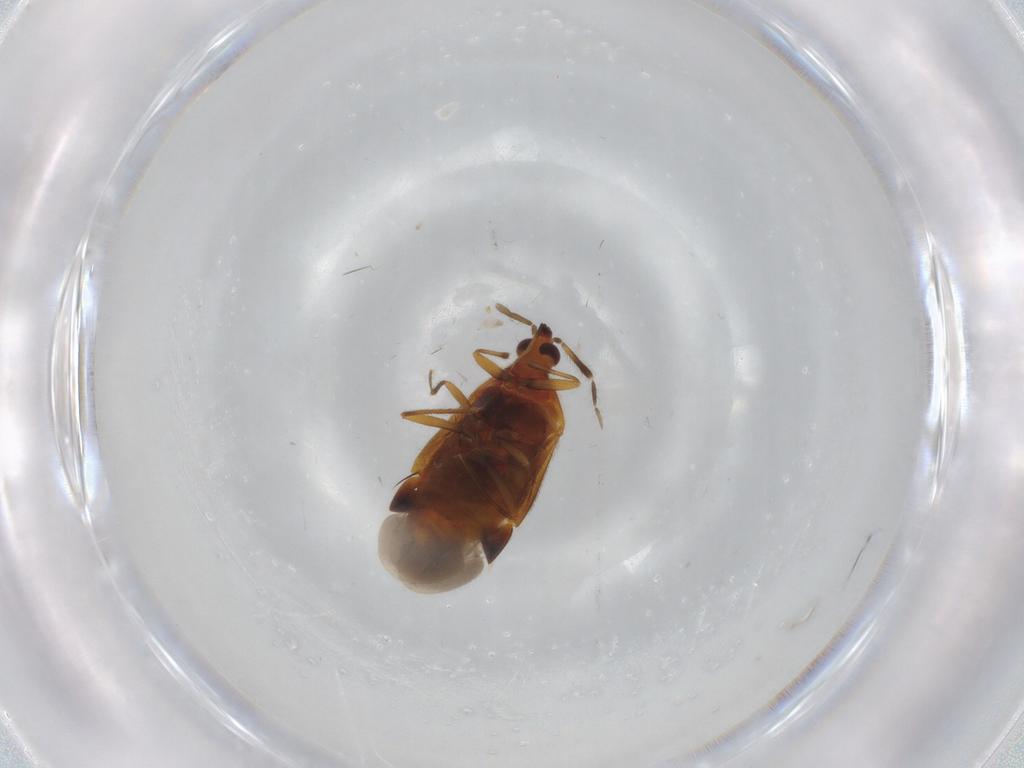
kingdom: Animalia
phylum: Arthropoda
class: Insecta
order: Hemiptera
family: Anthocoridae
